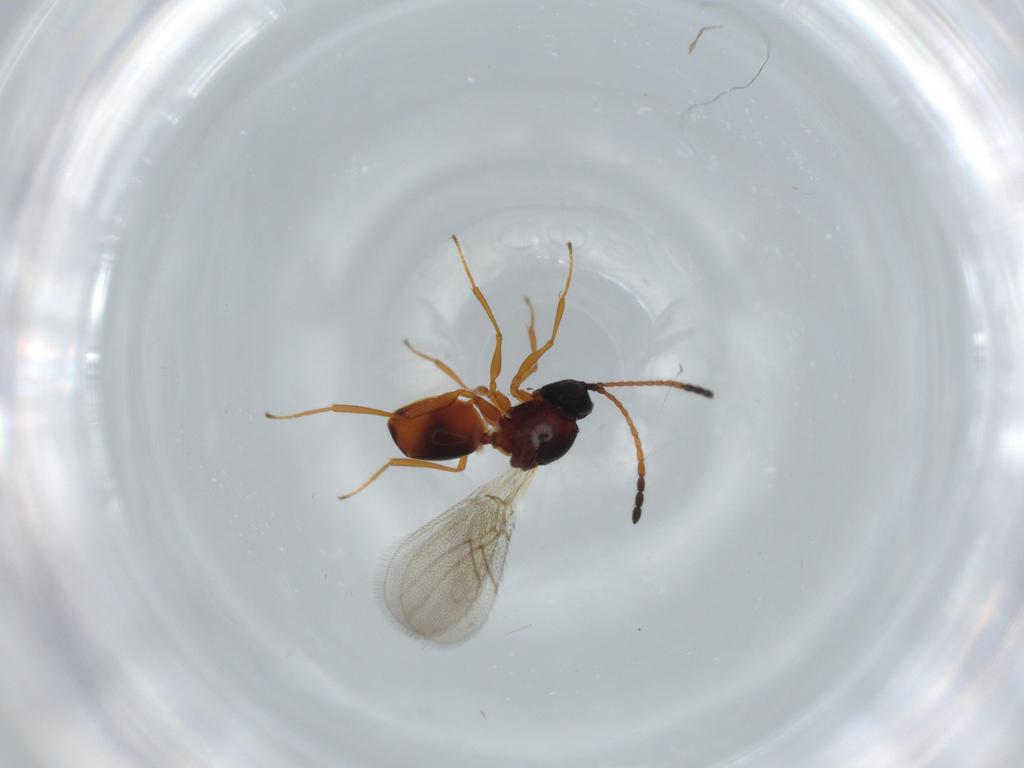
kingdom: Animalia
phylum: Arthropoda
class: Insecta
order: Hymenoptera
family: Figitidae
